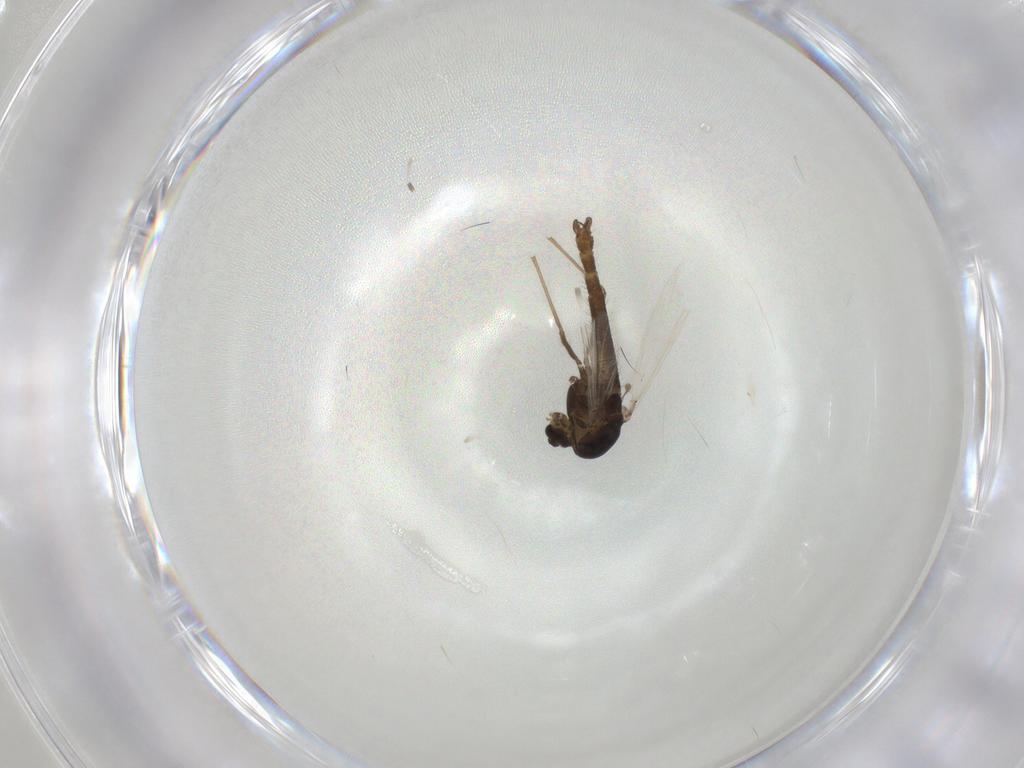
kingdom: Animalia
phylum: Arthropoda
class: Insecta
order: Diptera
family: Chironomidae
